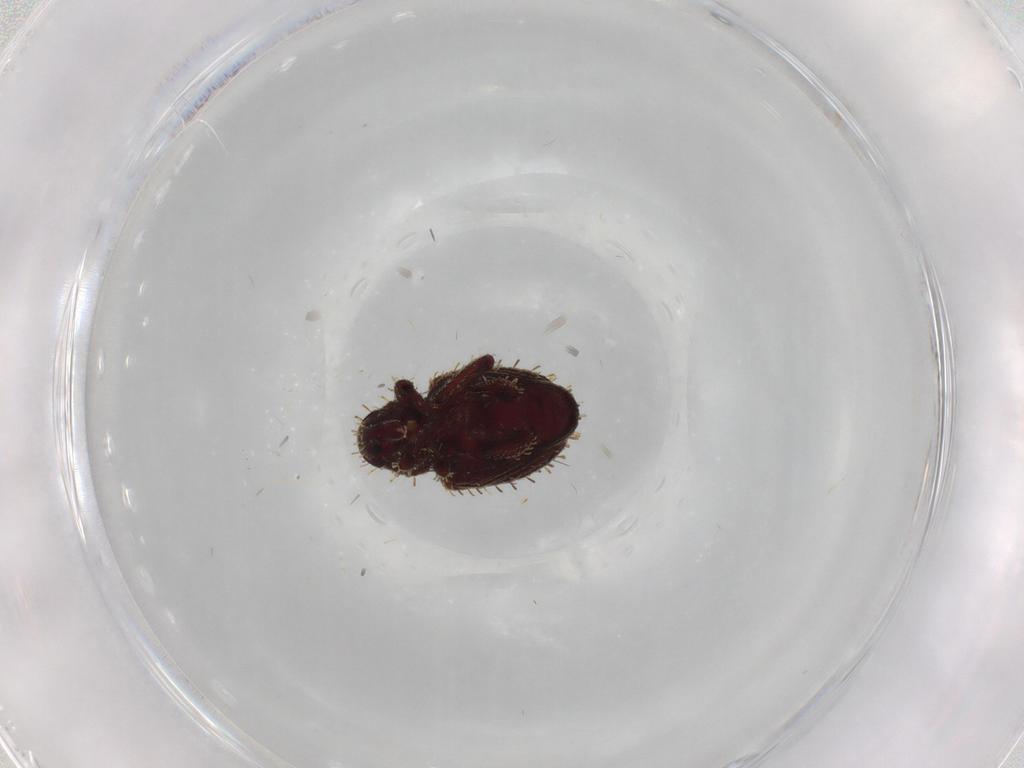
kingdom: Animalia
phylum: Arthropoda
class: Insecta
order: Coleoptera
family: Curculionidae
